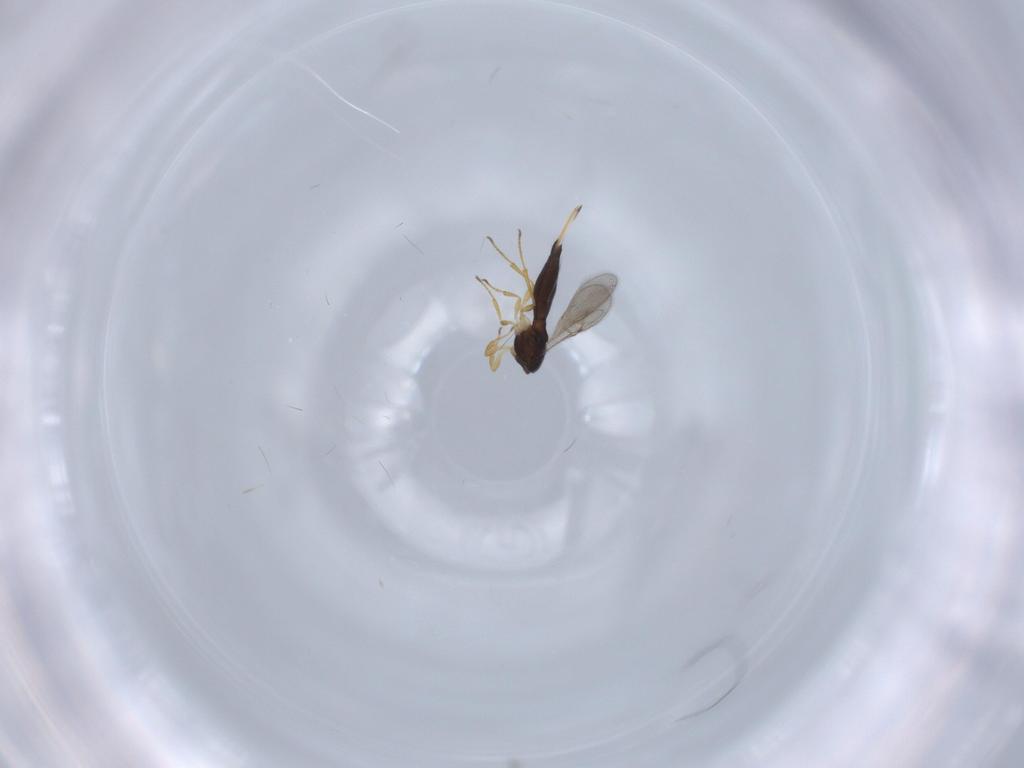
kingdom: Animalia
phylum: Arthropoda
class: Insecta
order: Hymenoptera
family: Scelionidae
